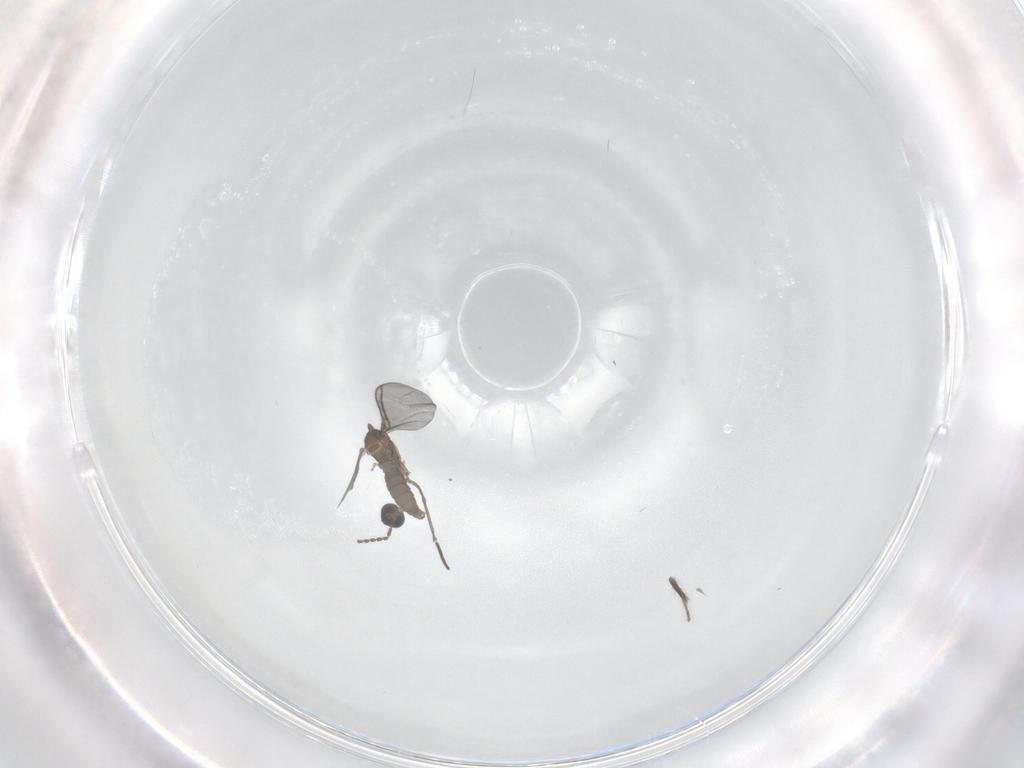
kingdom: Animalia
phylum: Arthropoda
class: Insecta
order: Diptera
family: Sciaridae
